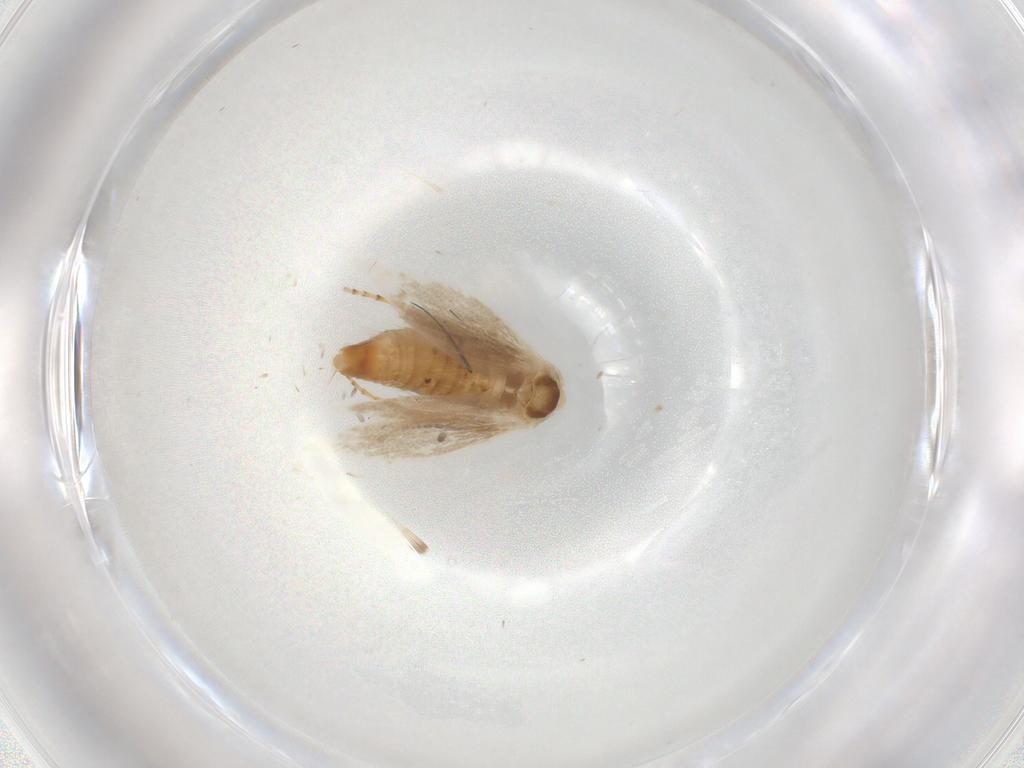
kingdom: Animalia
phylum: Arthropoda
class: Insecta
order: Lepidoptera
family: Bucculatricidae
